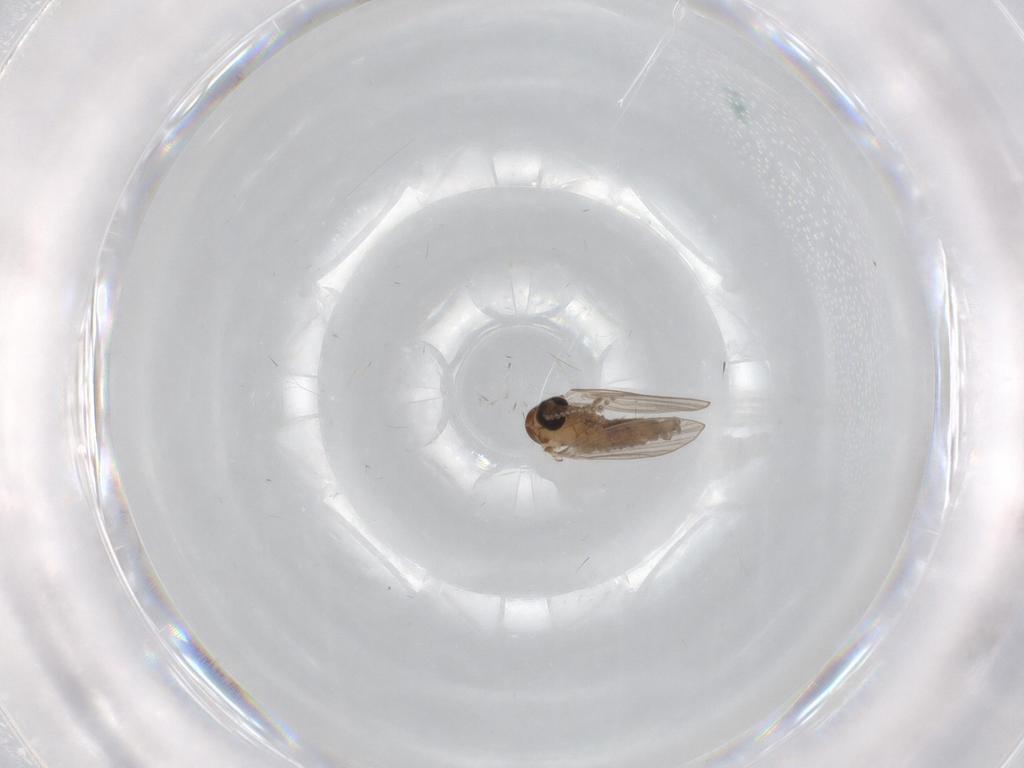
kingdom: Animalia
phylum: Arthropoda
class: Insecta
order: Diptera
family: Psychodidae
